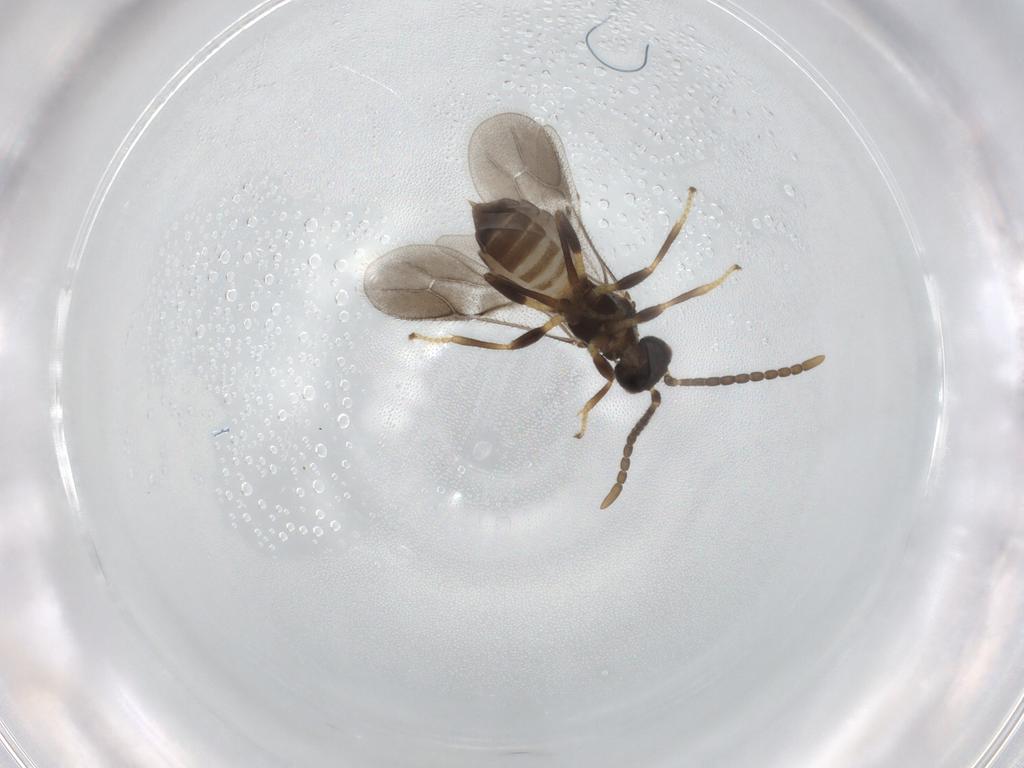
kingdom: Animalia
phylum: Arthropoda
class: Insecta
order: Hymenoptera
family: Braconidae
